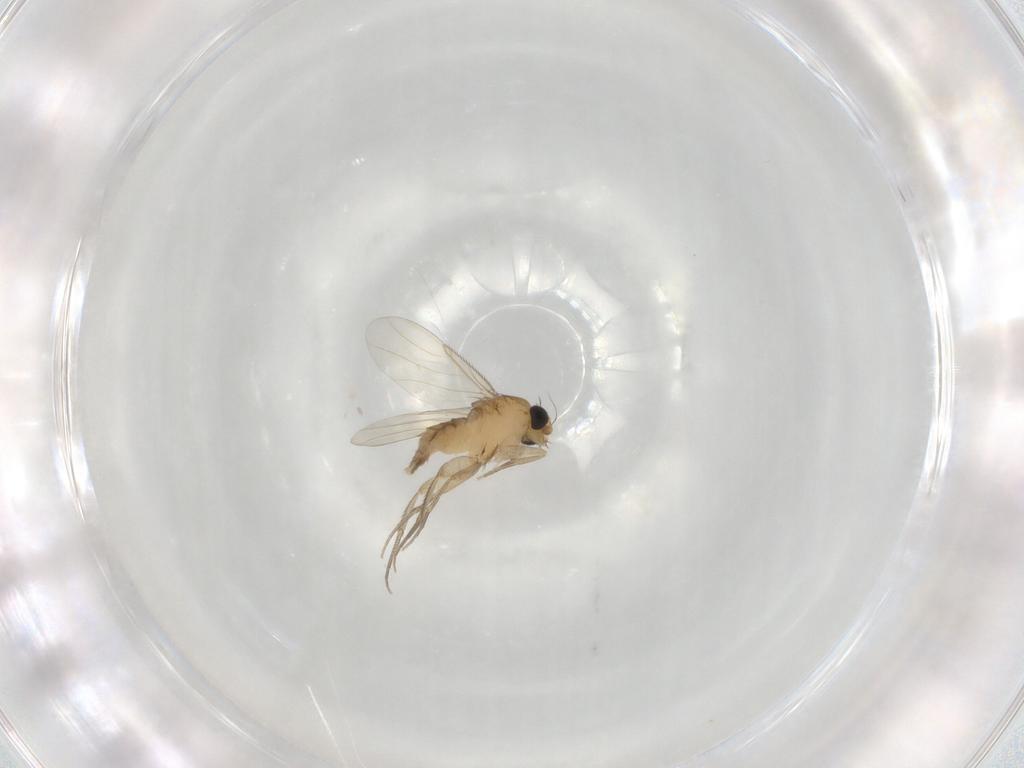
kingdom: Animalia
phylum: Arthropoda
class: Insecta
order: Diptera
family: Phoridae
